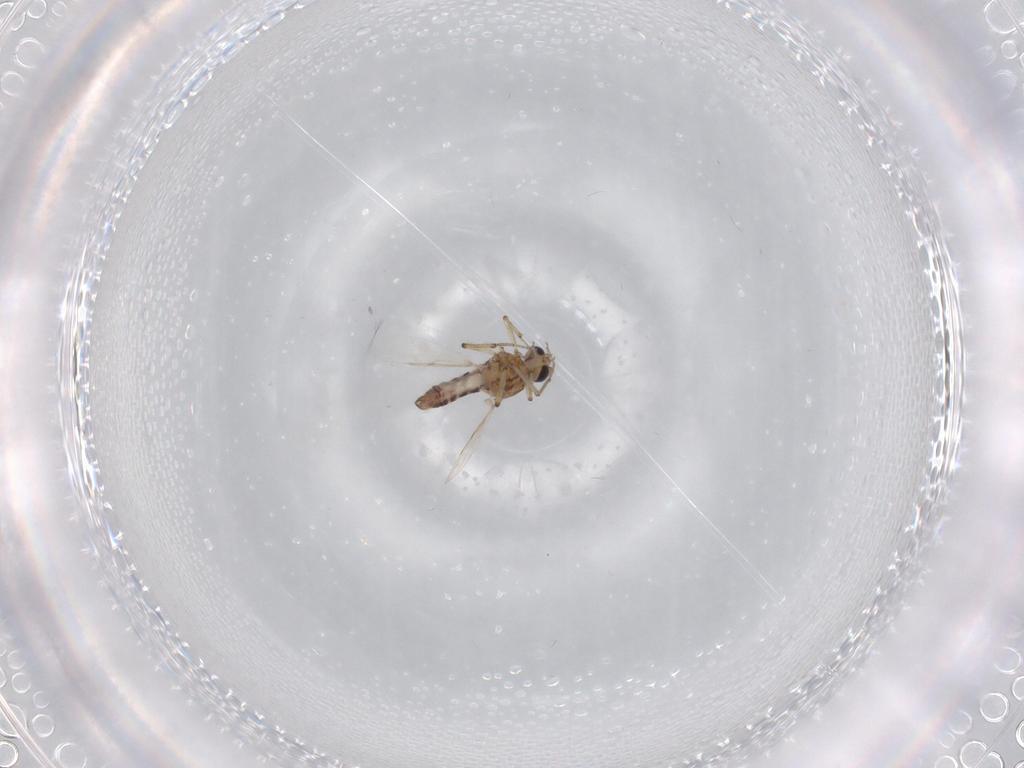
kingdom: Animalia
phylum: Arthropoda
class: Insecta
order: Diptera
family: Ceratopogonidae
